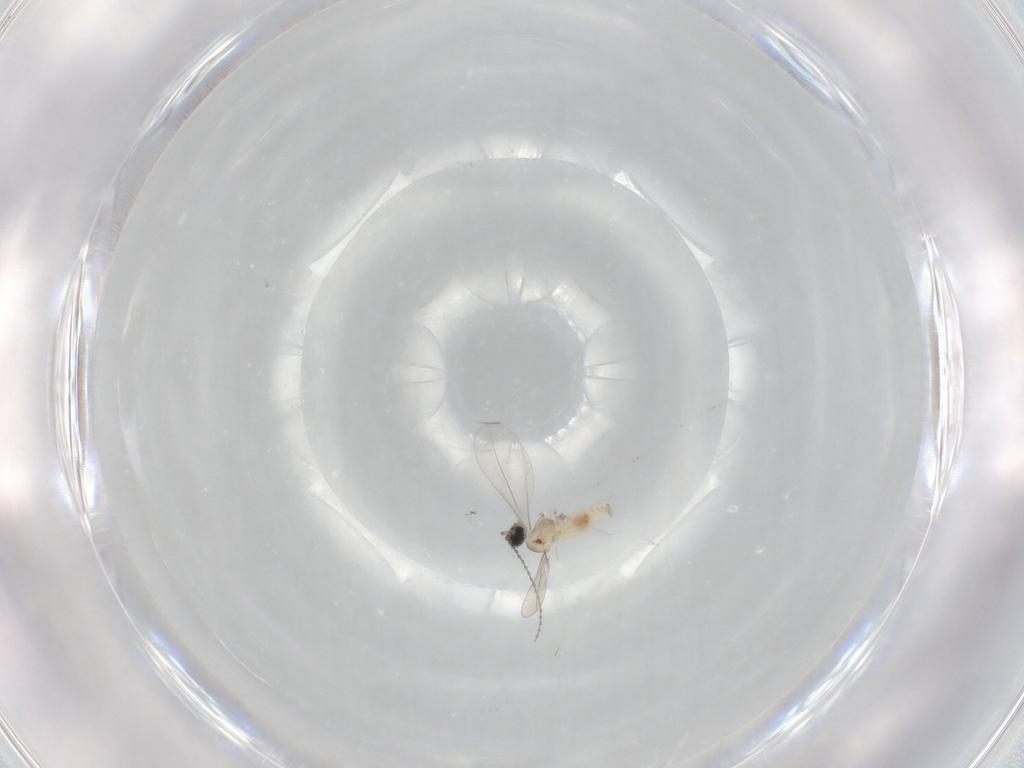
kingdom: Animalia
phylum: Arthropoda
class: Insecta
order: Diptera
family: Cecidomyiidae
